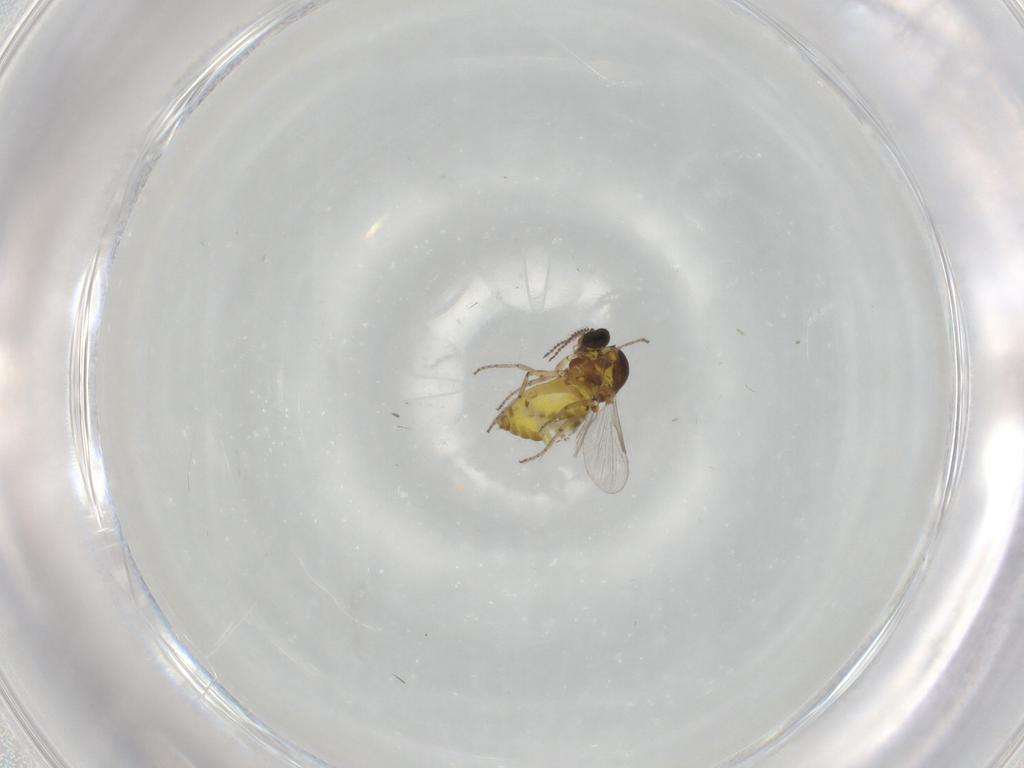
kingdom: Animalia
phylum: Arthropoda
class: Insecta
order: Diptera
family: Ceratopogonidae
